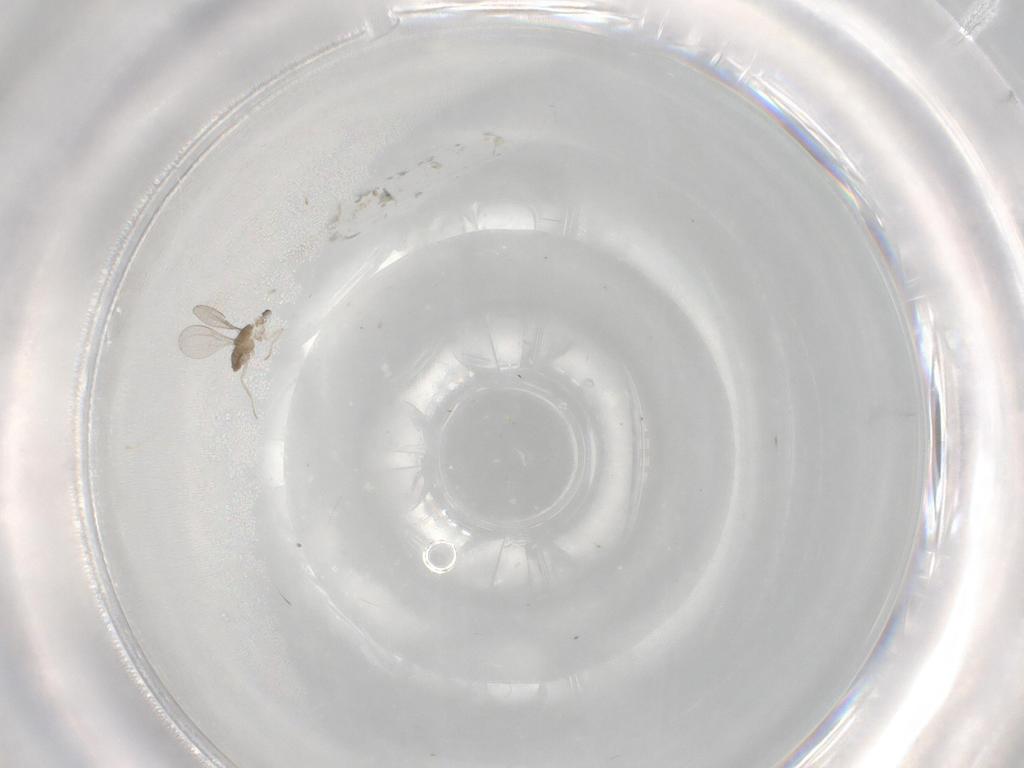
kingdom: Animalia
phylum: Arthropoda
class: Insecta
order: Diptera
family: Cecidomyiidae
